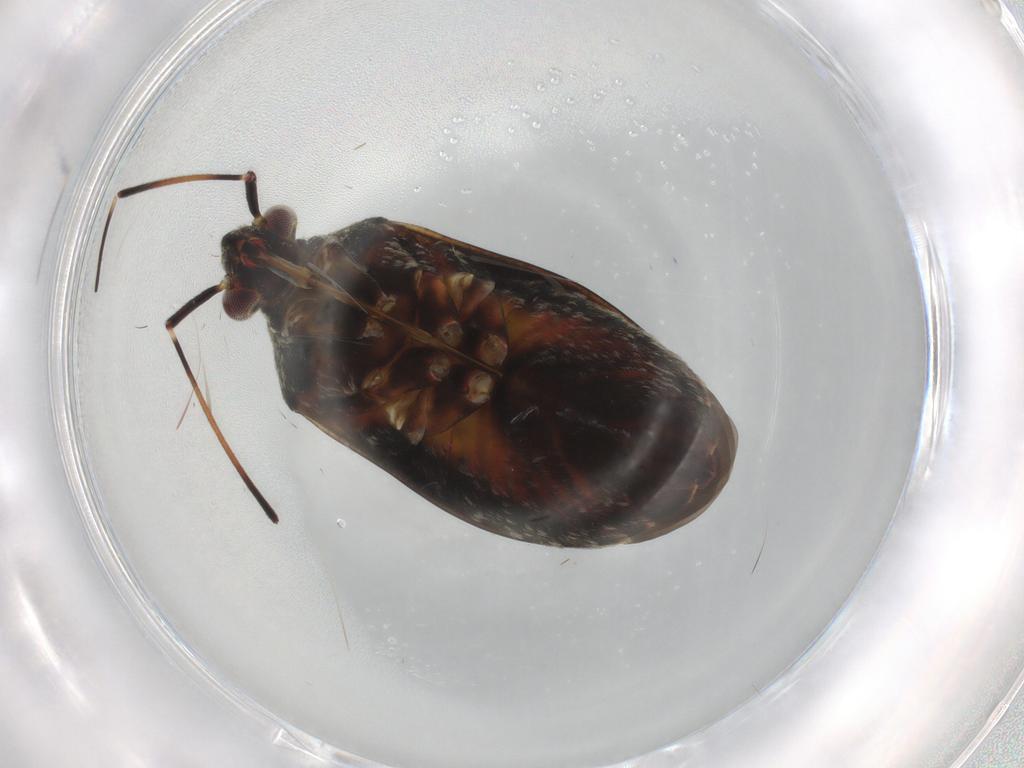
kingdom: Animalia
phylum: Arthropoda
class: Insecta
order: Hemiptera
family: Miridae
